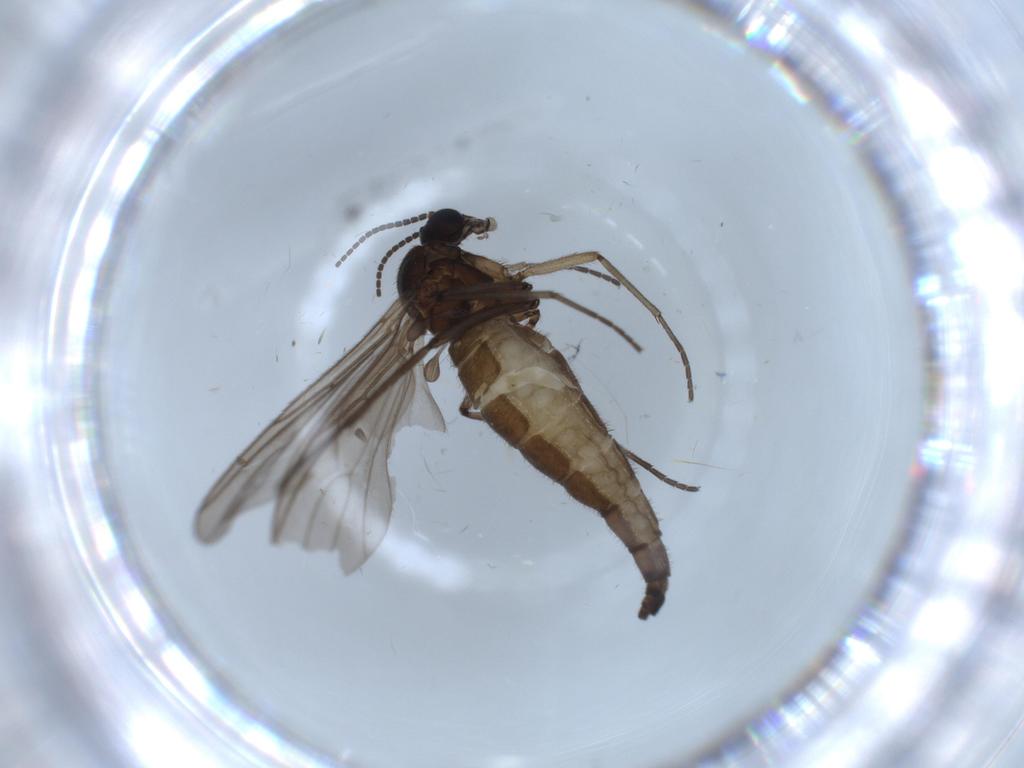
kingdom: Animalia
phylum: Arthropoda
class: Insecta
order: Diptera
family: Sciaridae
